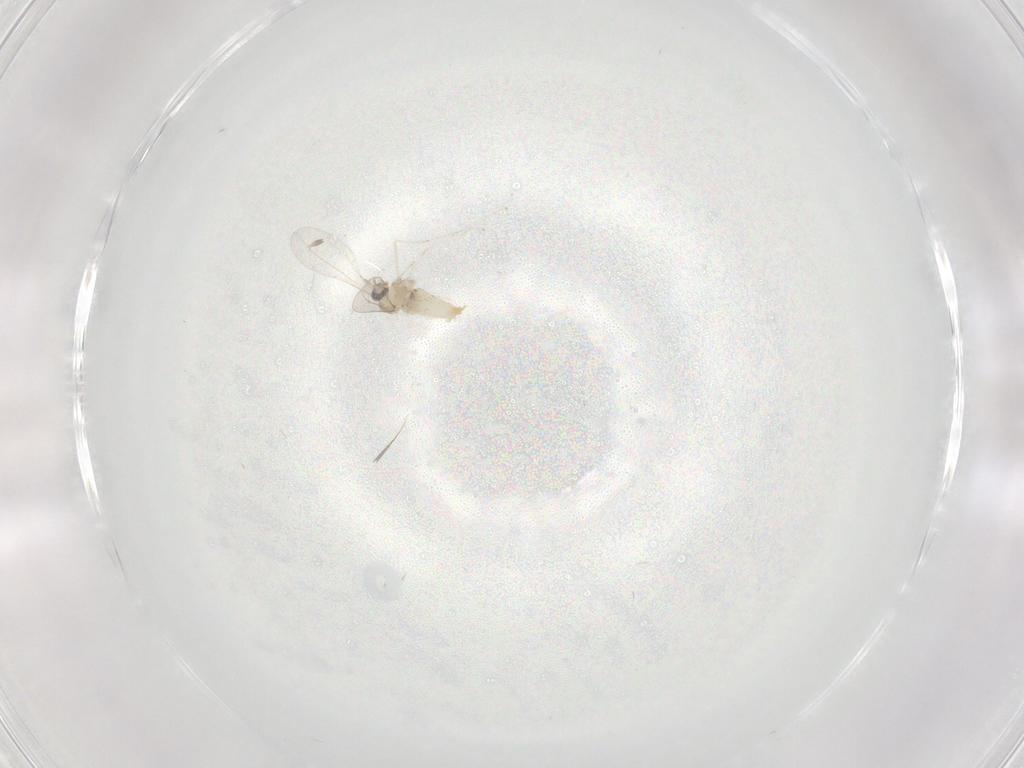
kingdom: Animalia
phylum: Arthropoda
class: Insecta
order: Diptera
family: Cecidomyiidae
